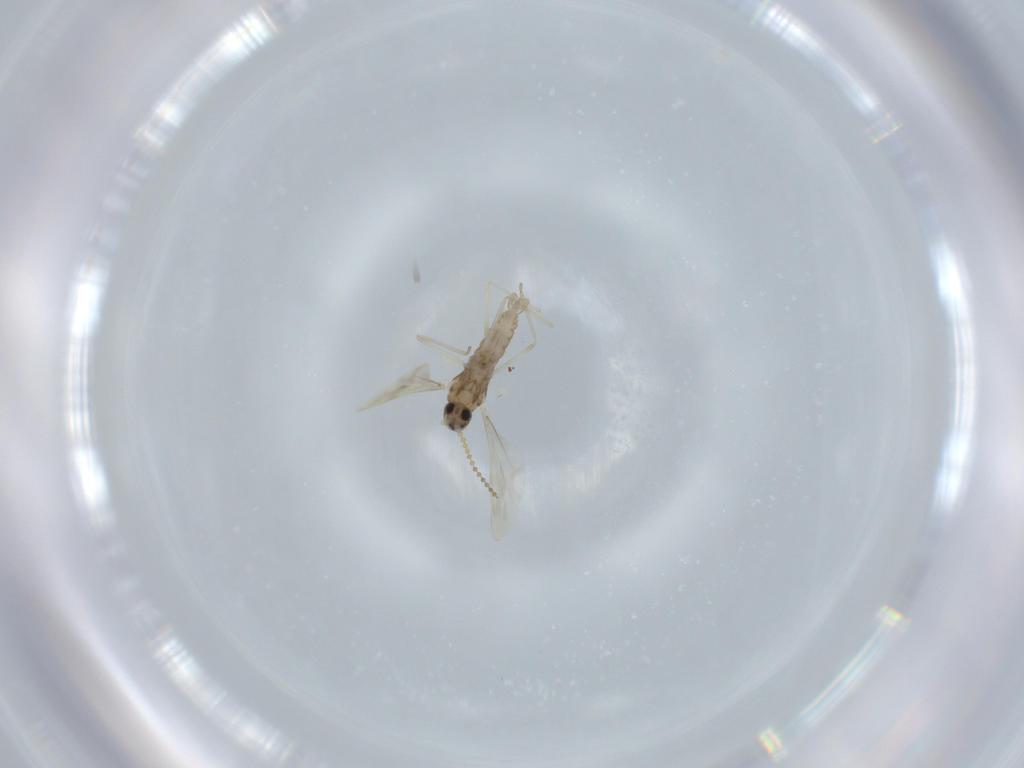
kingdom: Animalia
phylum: Arthropoda
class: Insecta
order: Diptera
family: Cecidomyiidae
